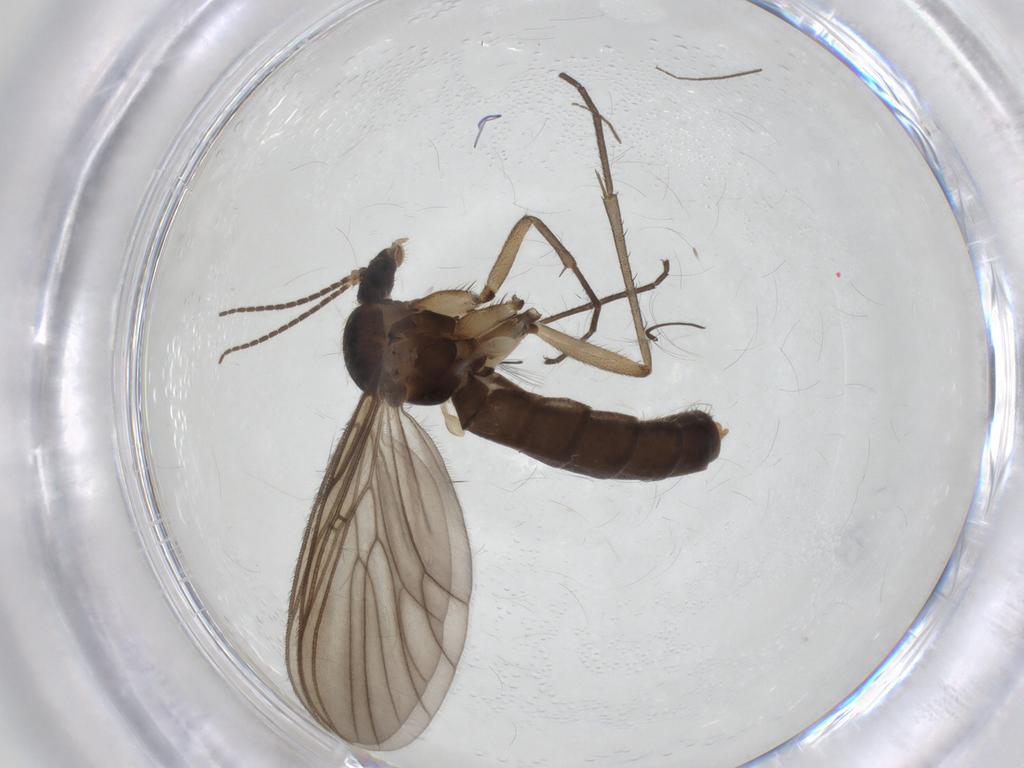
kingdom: Animalia
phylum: Arthropoda
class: Insecta
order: Diptera
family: Mycetophilidae
